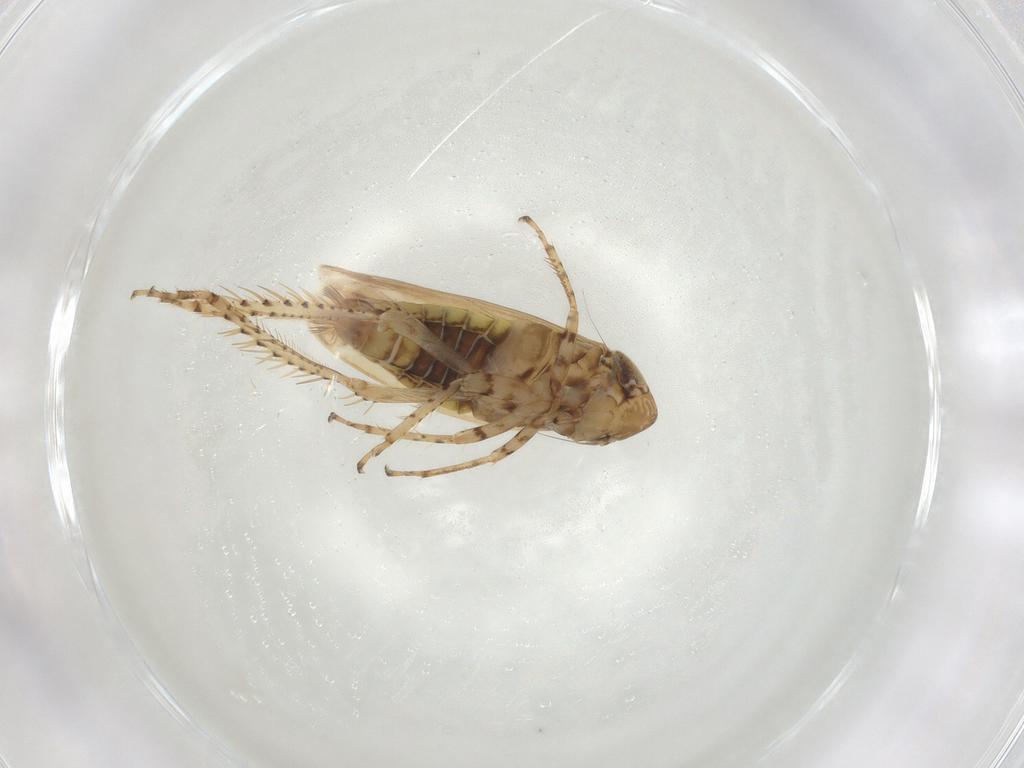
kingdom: Animalia
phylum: Arthropoda
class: Insecta
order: Hemiptera
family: Cicadellidae
